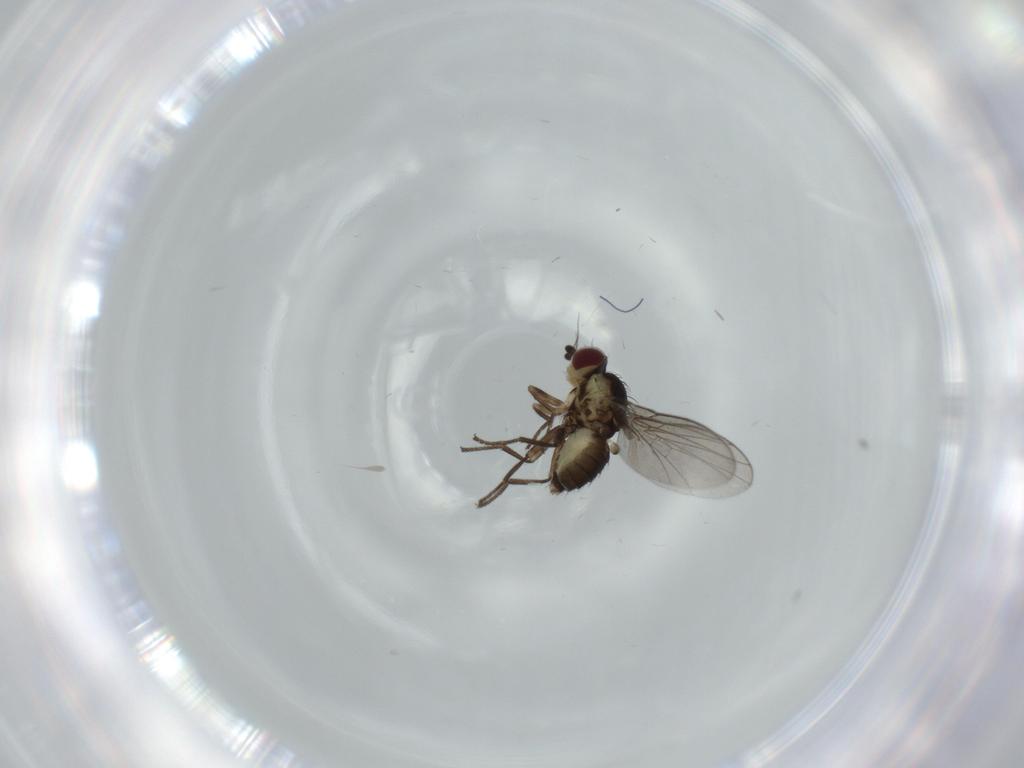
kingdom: Animalia
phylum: Arthropoda
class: Insecta
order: Diptera
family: Agromyzidae
